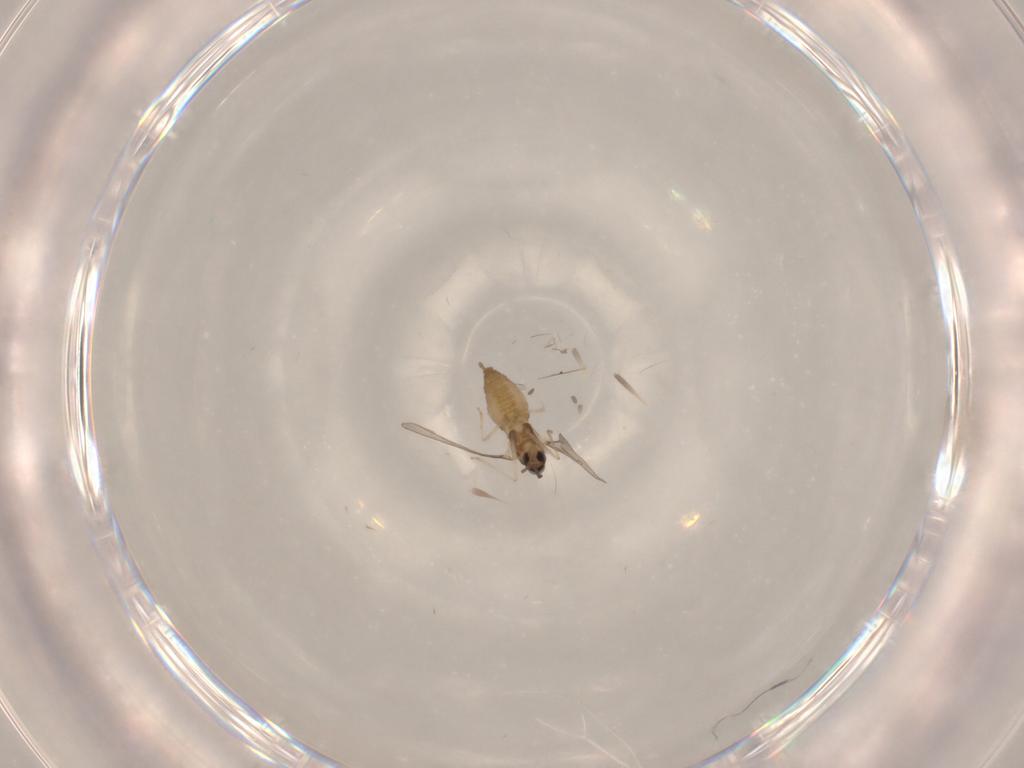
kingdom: Animalia
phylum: Arthropoda
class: Insecta
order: Diptera
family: Cecidomyiidae
